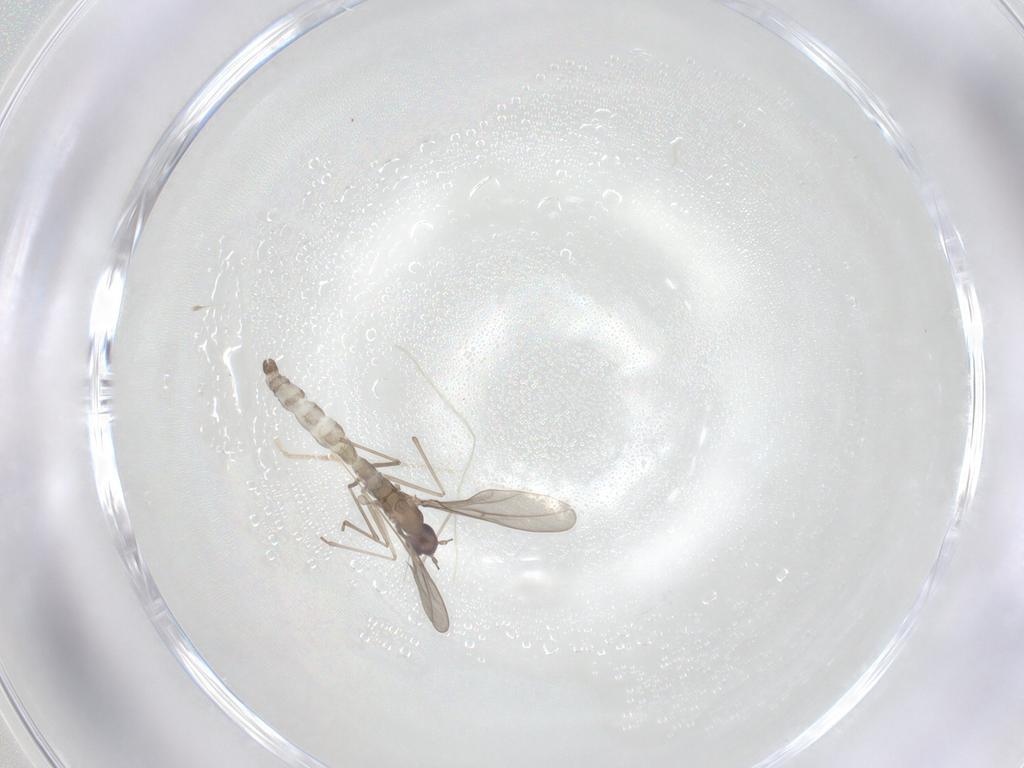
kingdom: Animalia
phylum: Arthropoda
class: Insecta
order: Diptera
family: Limoniidae
